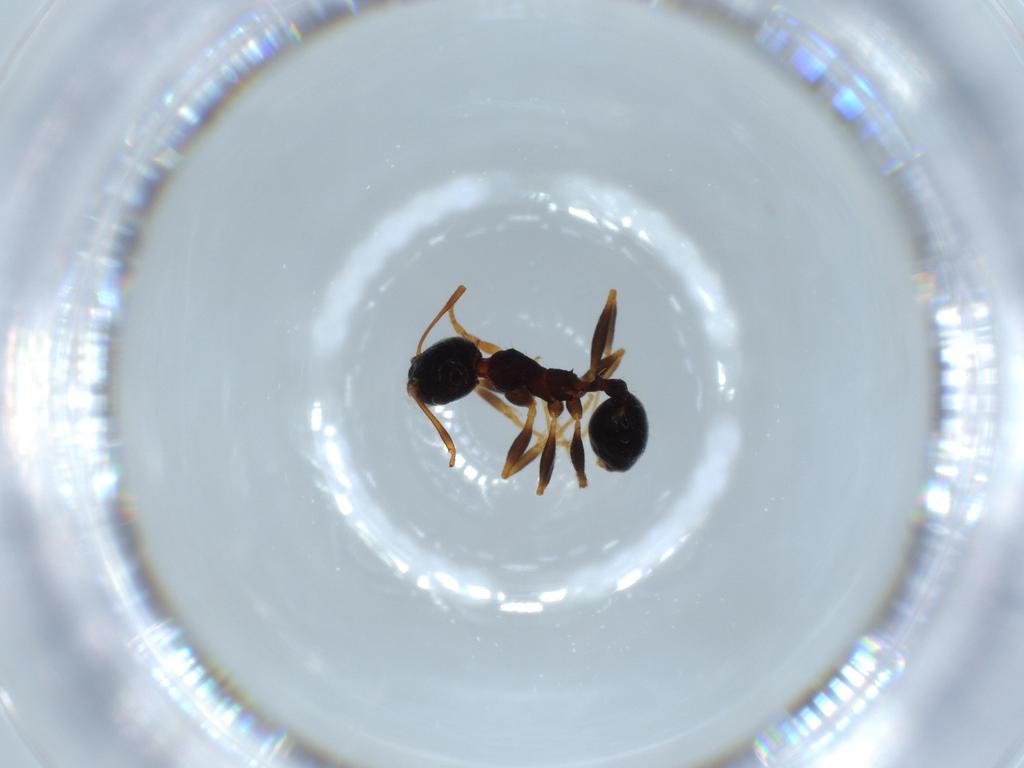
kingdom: Animalia
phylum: Arthropoda
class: Insecta
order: Hymenoptera
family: Formicidae
